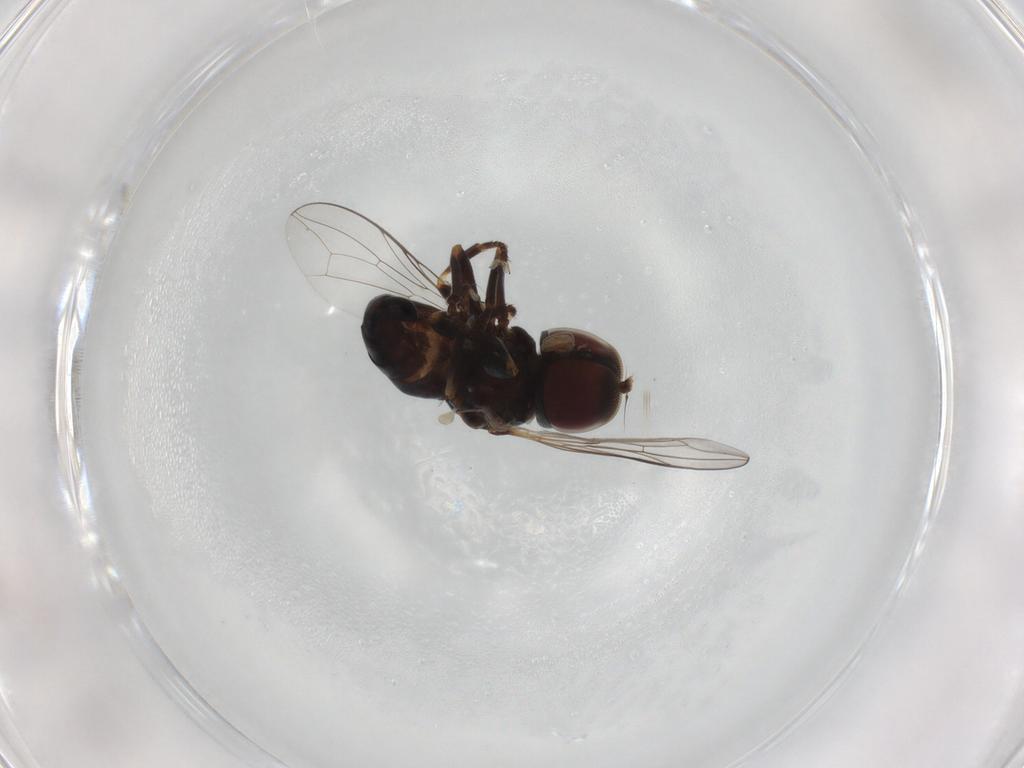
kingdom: Animalia
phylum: Arthropoda
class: Insecta
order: Diptera
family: Pipunculidae
